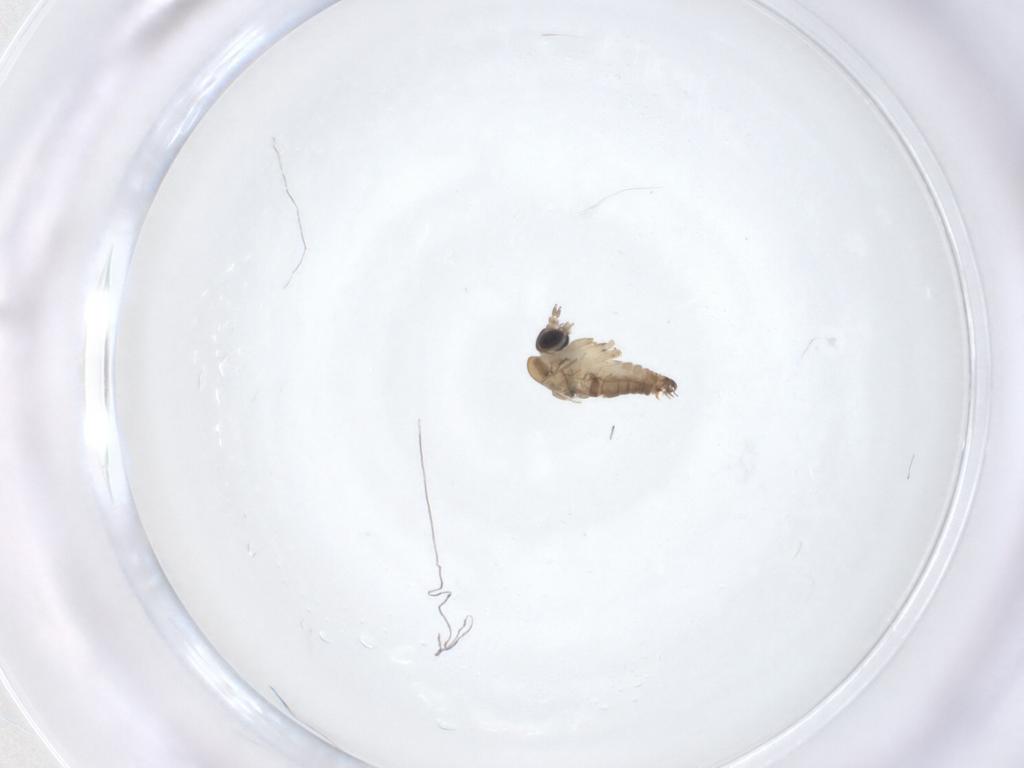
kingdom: Animalia
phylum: Arthropoda
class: Insecta
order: Diptera
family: Psychodidae
